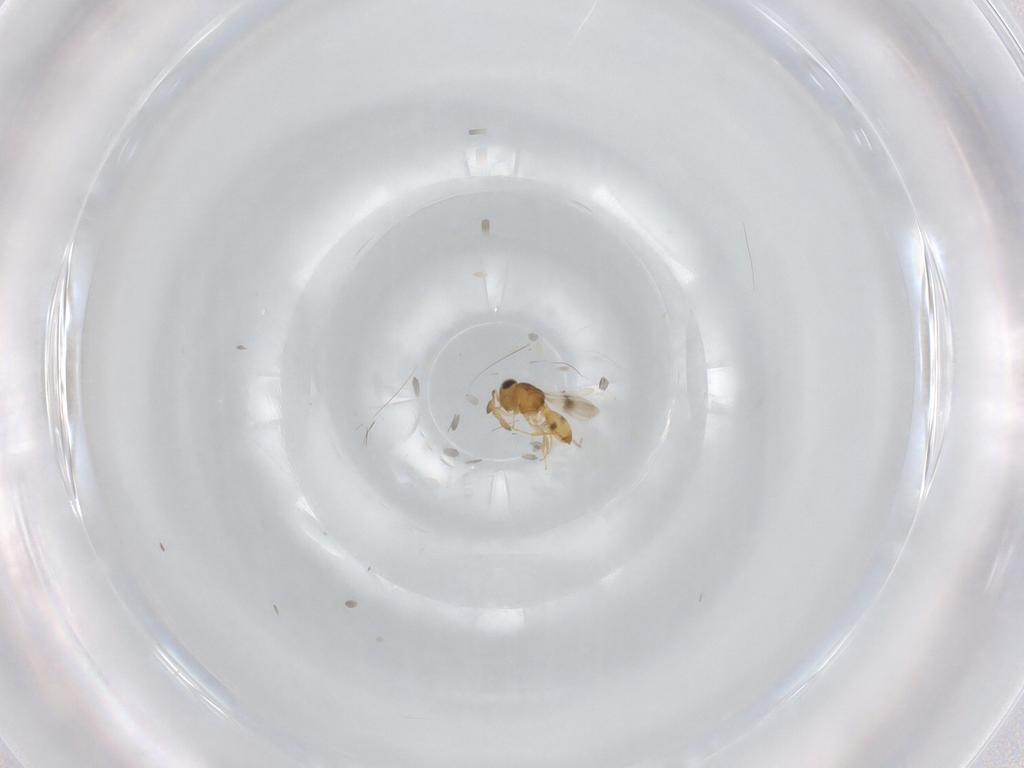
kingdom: Animalia
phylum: Arthropoda
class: Insecta
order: Hymenoptera
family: Scelionidae
